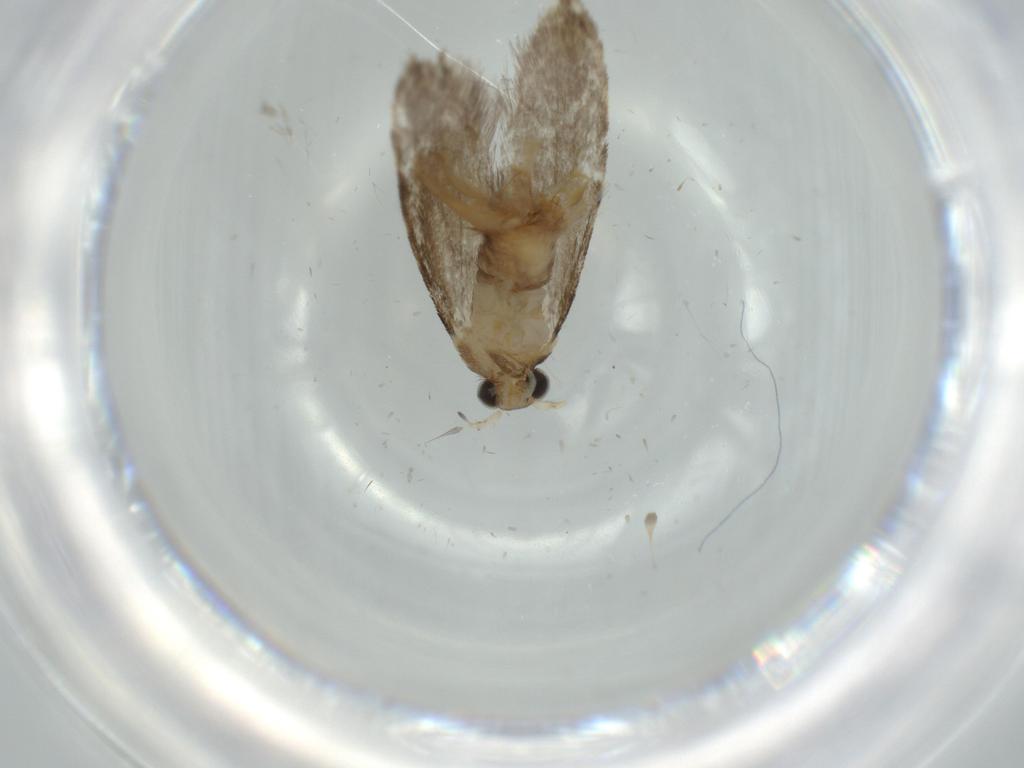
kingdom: Animalia
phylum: Arthropoda
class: Insecta
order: Lepidoptera
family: Tineidae
